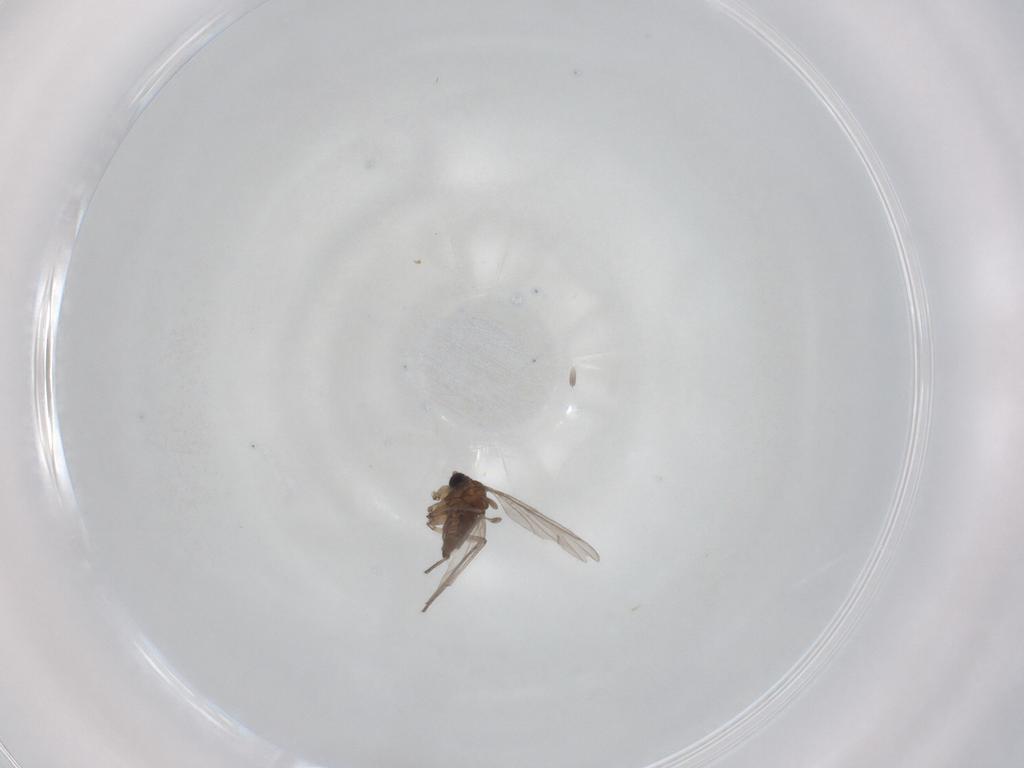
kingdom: Animalia
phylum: Arthropoda
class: Insecta
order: Diptera
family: Sciaridae
